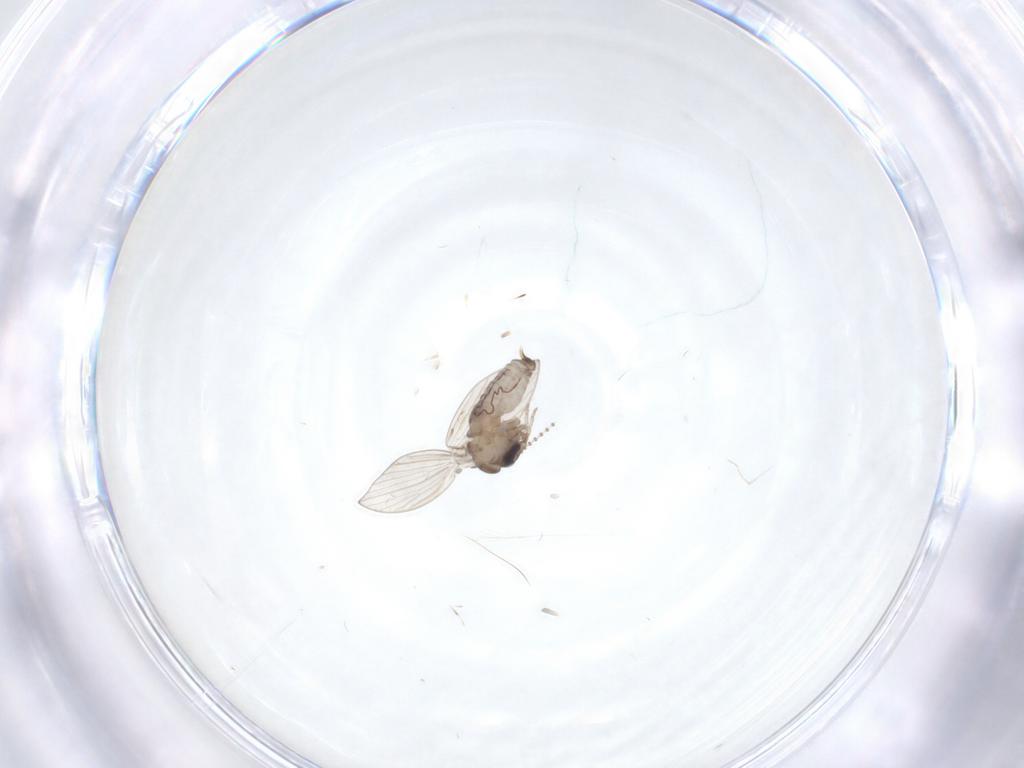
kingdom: Animalia
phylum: Arthropoda
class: Insecta
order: Diptera
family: Psychodidae
